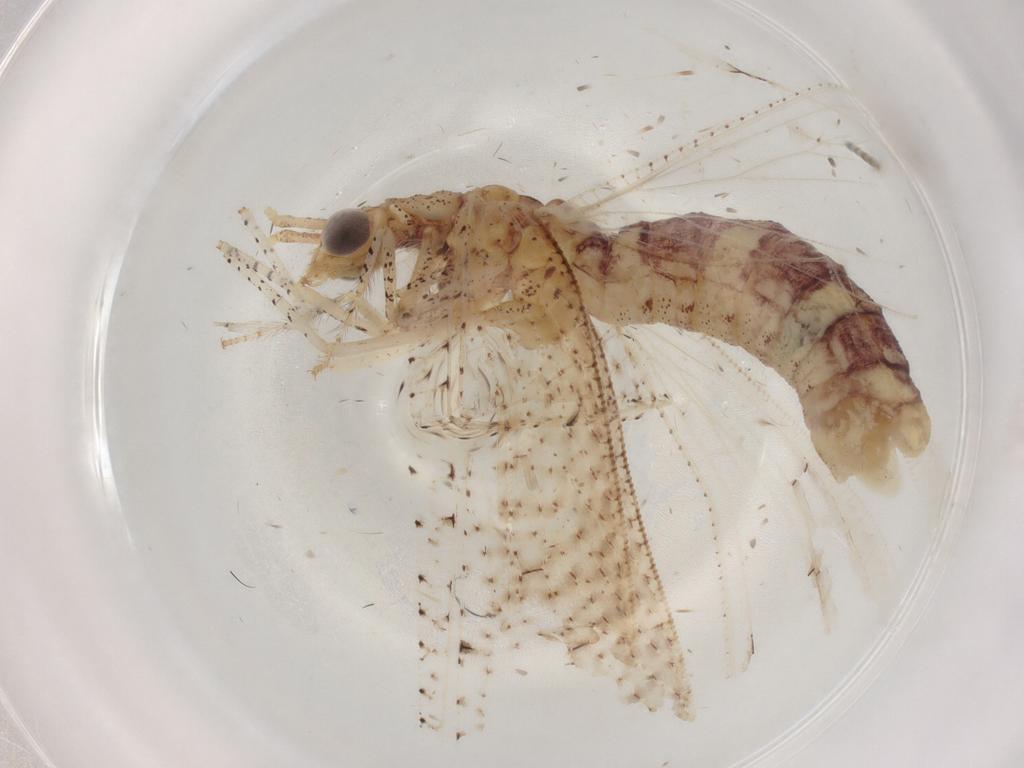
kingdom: Animalia
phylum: Arthropoda
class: Insecta
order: Neuroptera
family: Berothidae
